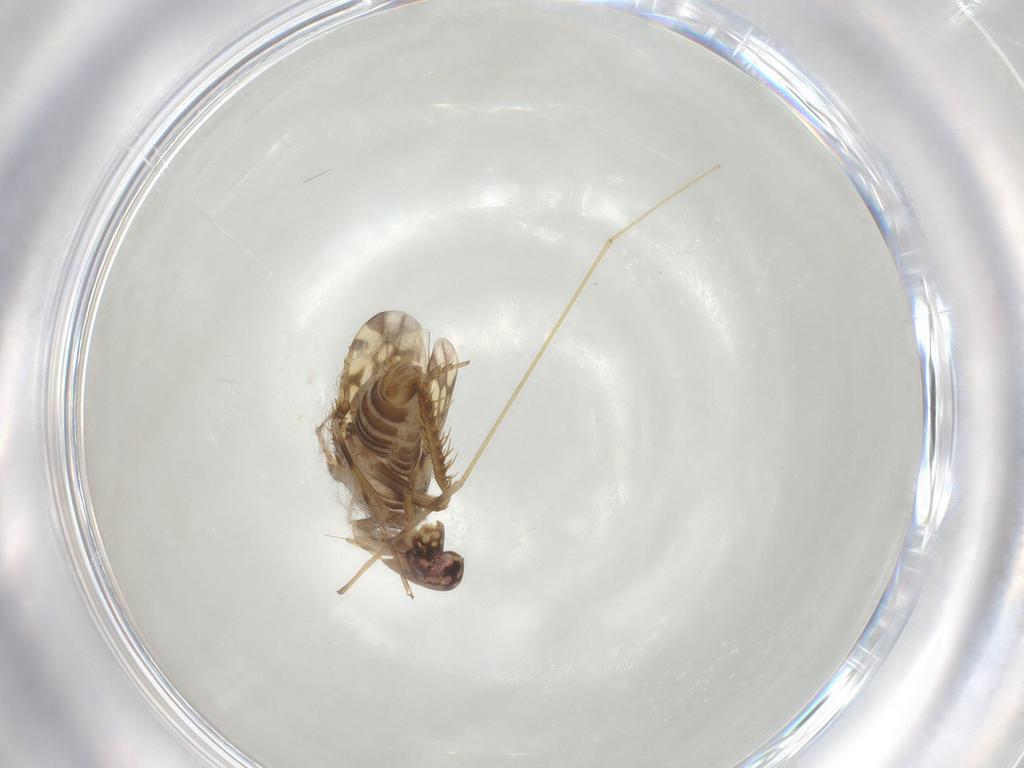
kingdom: Animalia
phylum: Arthropoda
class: Insecta
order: Hemiptera
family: Cicadellidae
